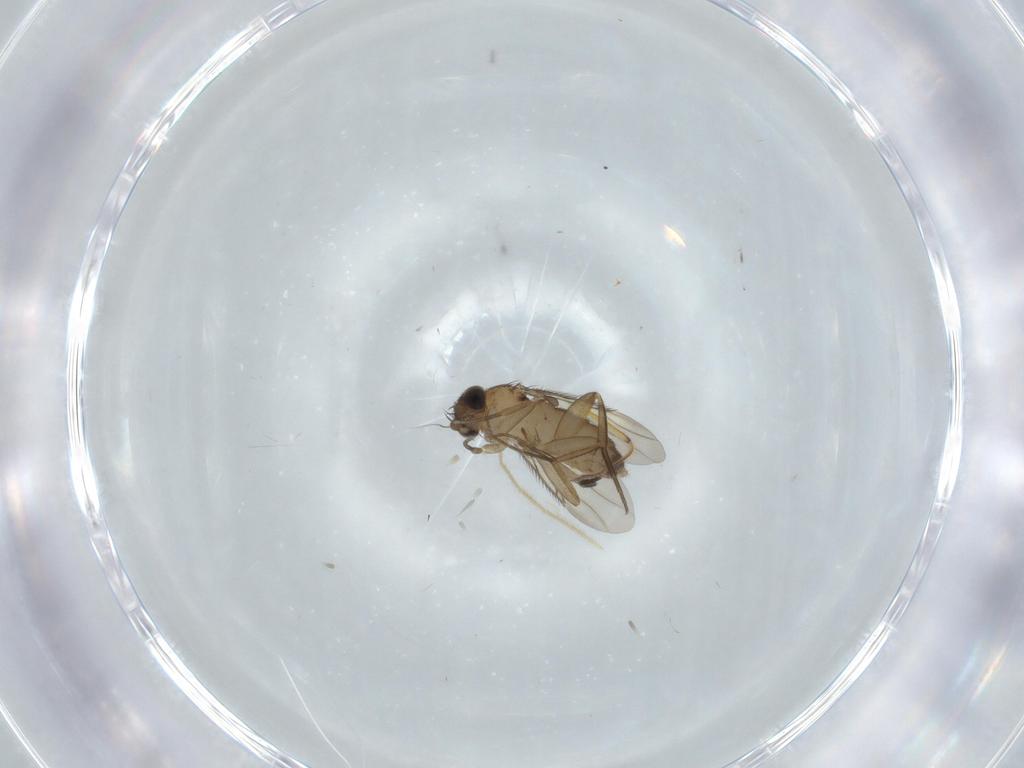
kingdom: Animalia
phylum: Arthropoda
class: Insecta
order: Diptera
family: Phoridae
